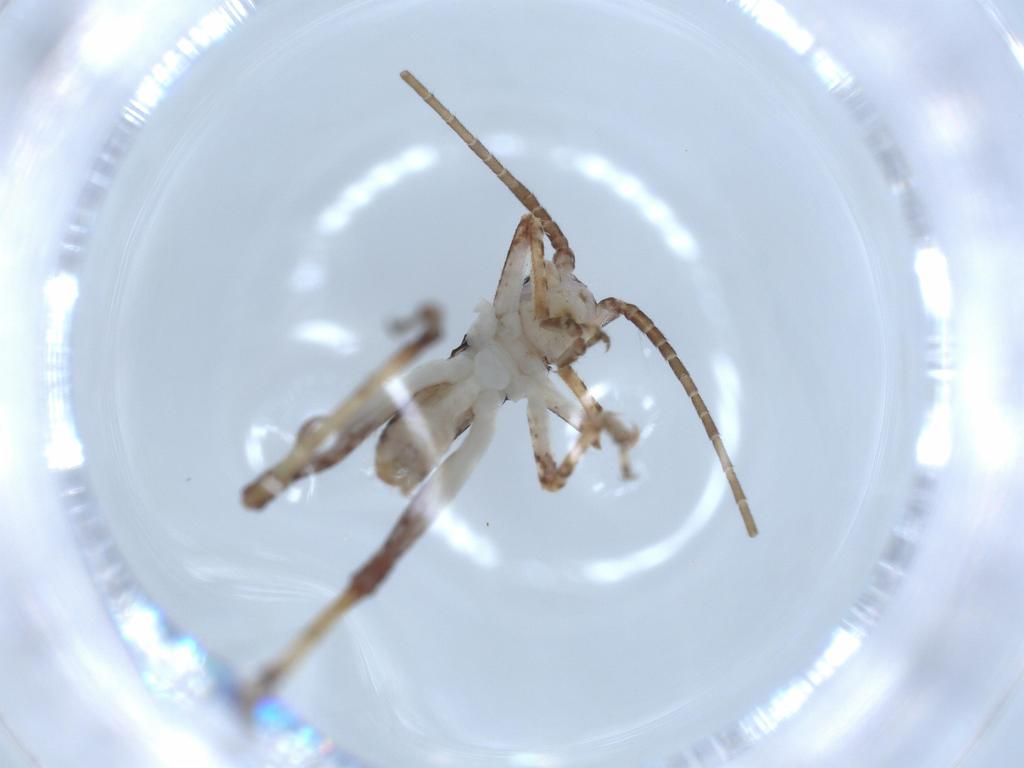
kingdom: Animalia
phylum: Arthropoda
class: Insecta
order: Orthoptera
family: Gryllidae
